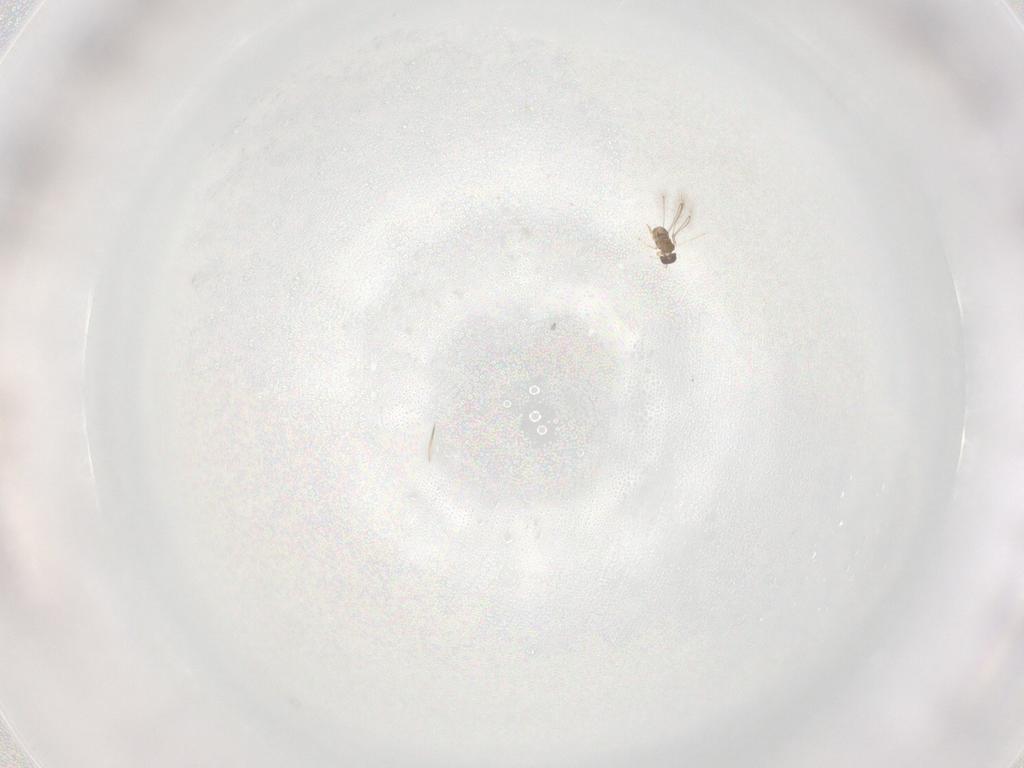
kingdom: Animalia
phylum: Arthropoda
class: Insecta
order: Hymenoptera
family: Mymaridae
